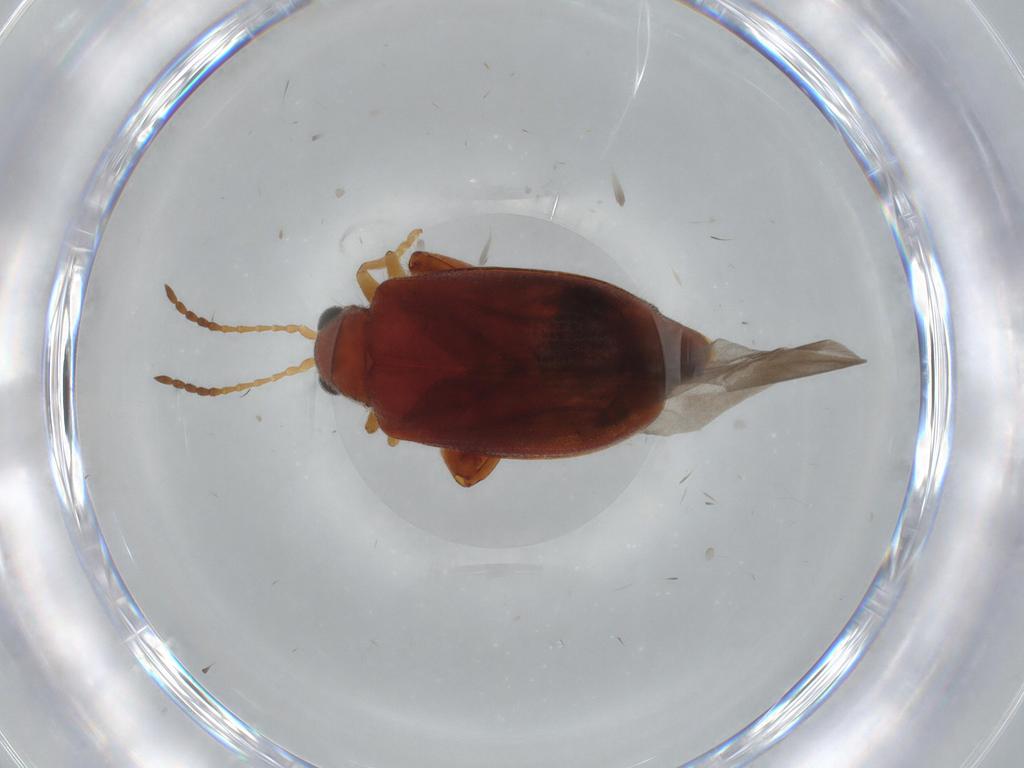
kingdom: Animalia
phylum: Arthropoda
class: Insecta
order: Coleoptera
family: Chrysomelidae
